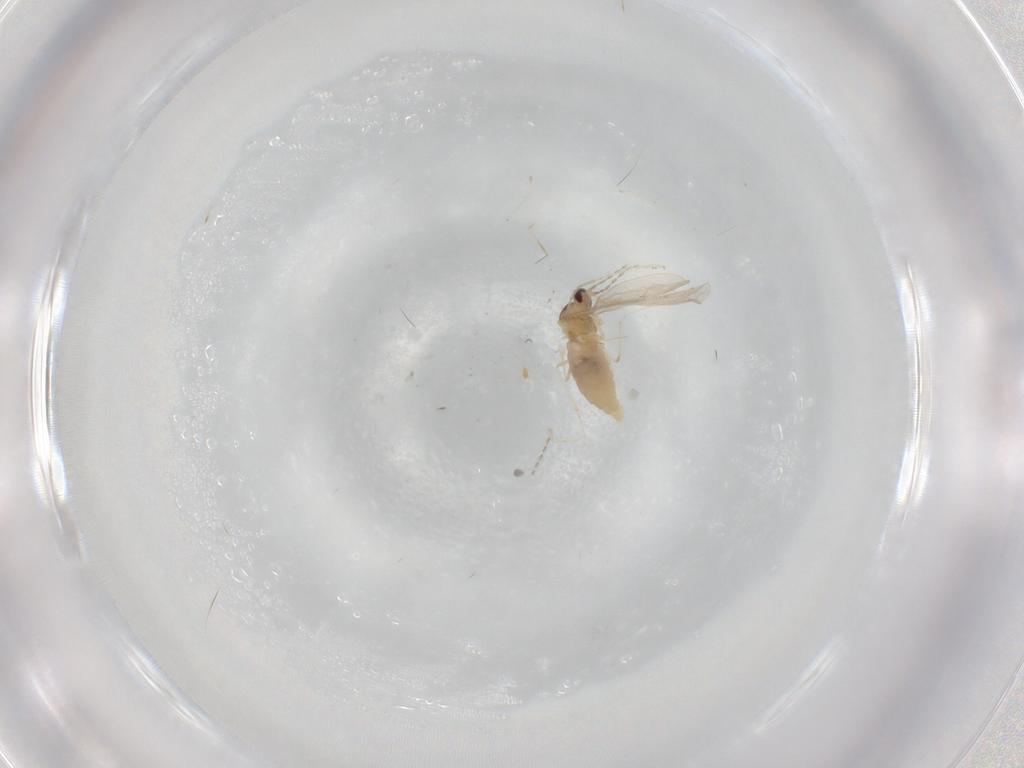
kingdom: Animalia
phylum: Arthropoda
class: Insecta
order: Diptera
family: Cecidomyiidae
